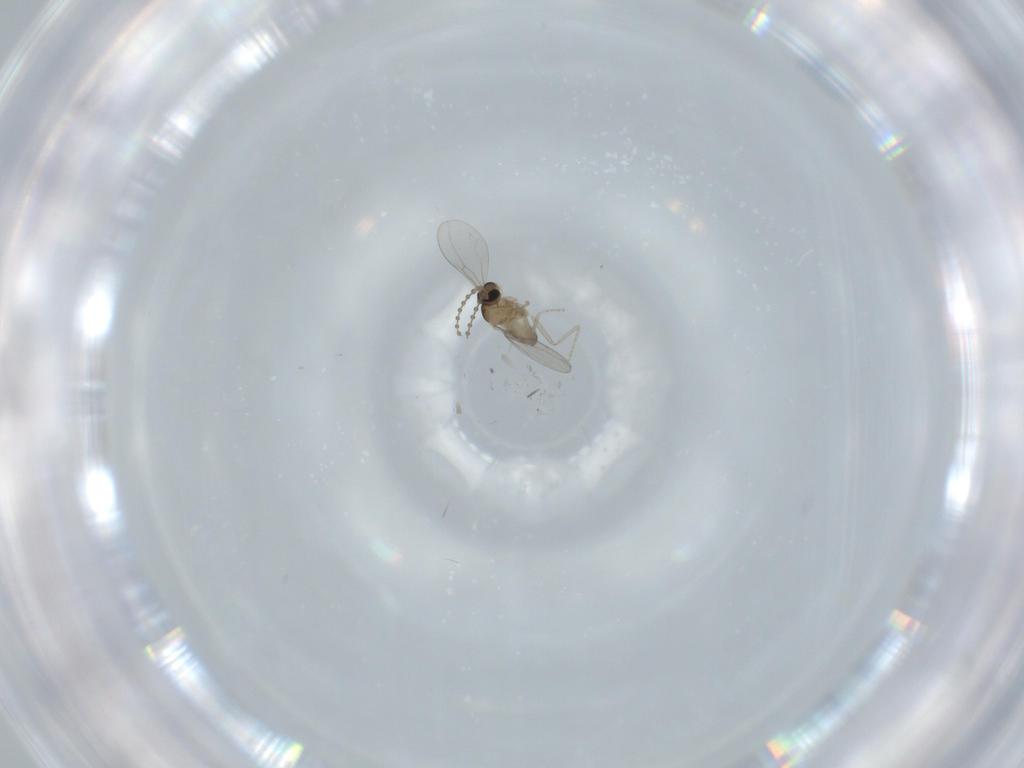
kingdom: Animalia
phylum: Arthropoda
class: Insecta
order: Diptera
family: Cecidomyiidae
